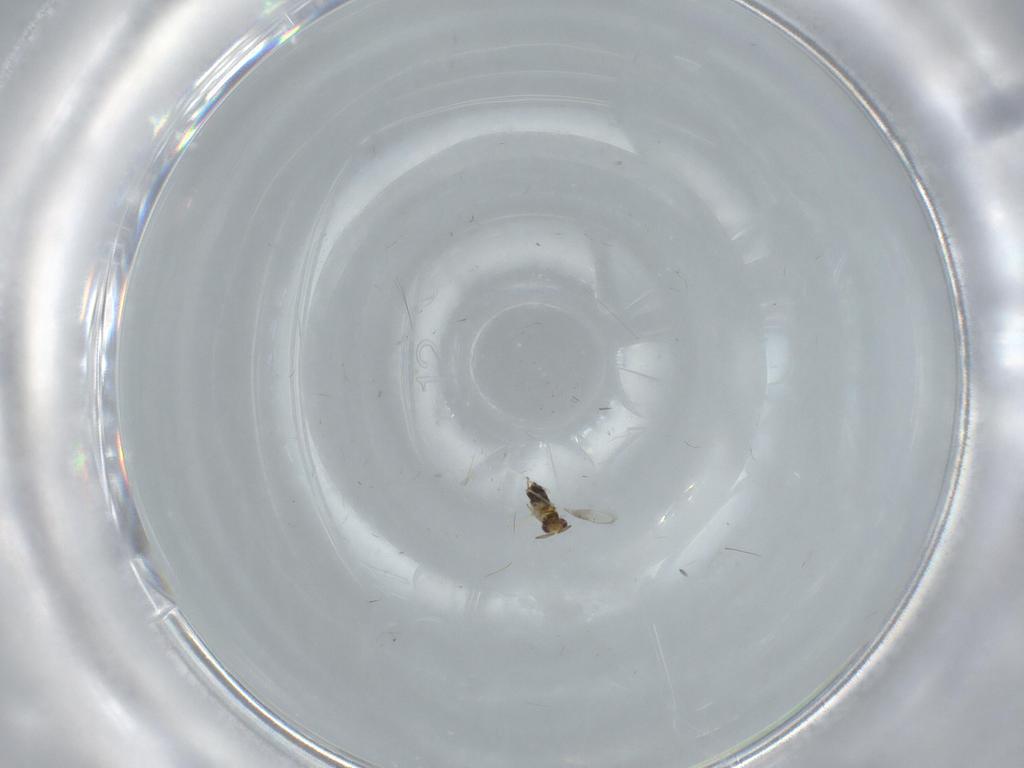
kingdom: Animalia
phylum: Arthropoda
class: Insecta
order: Hymenoptera
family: Aphelinidae
